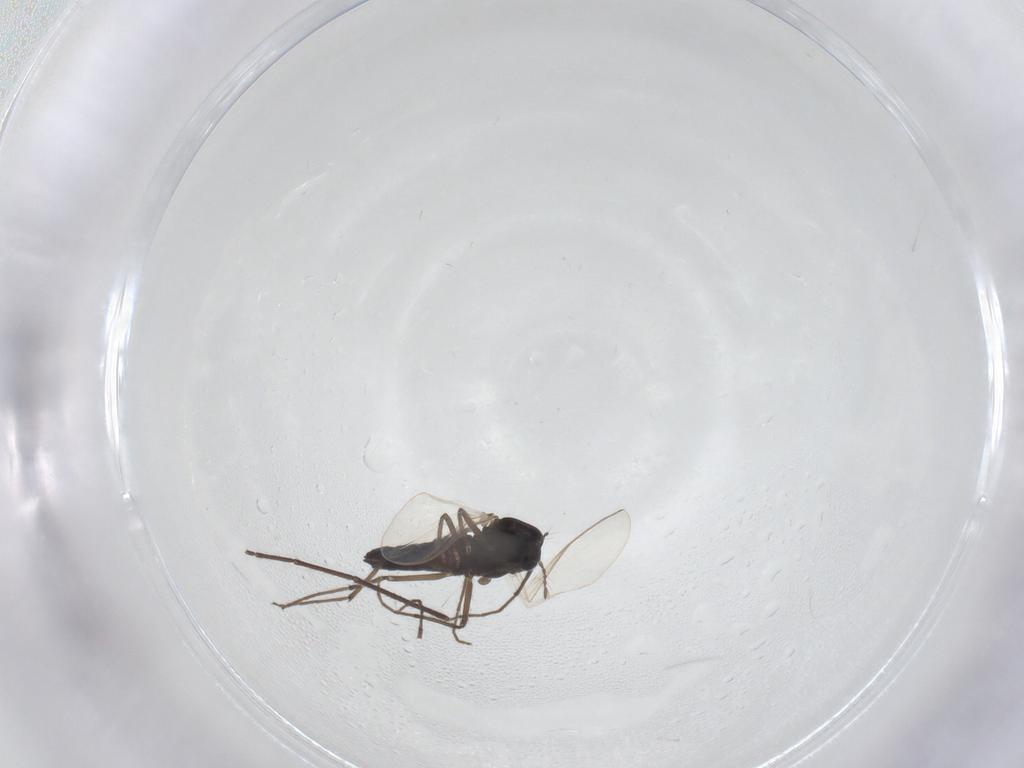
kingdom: Animalia
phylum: Arthropoda
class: Insecta
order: Diptera
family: Chironomidae
